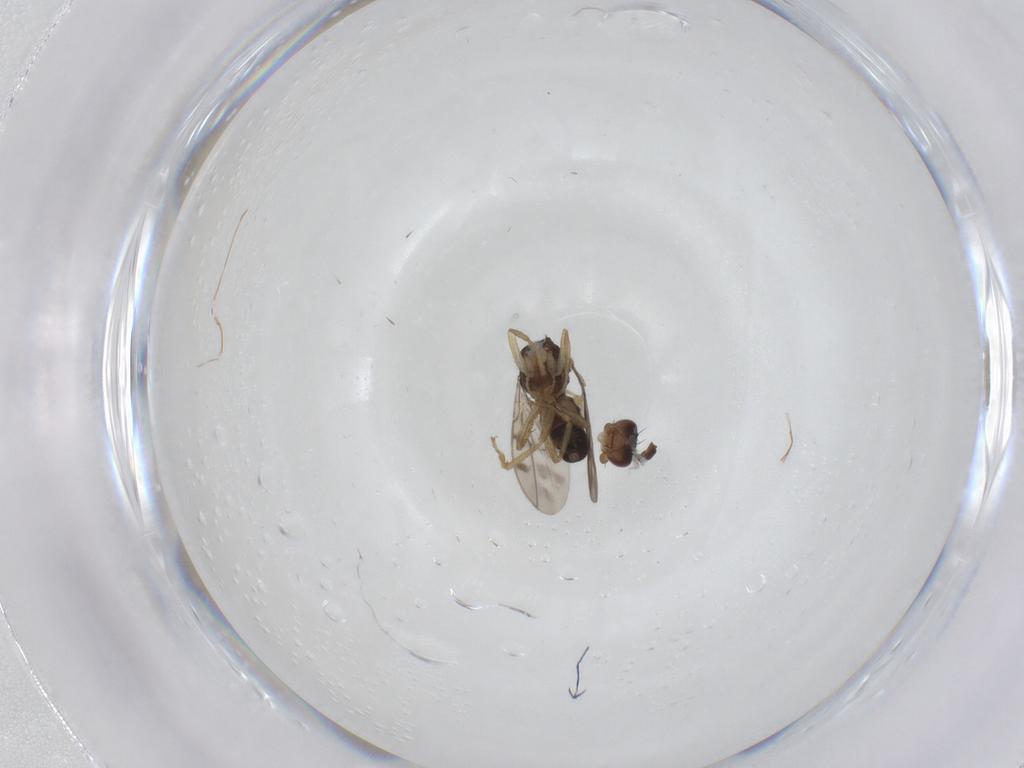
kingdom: Animalia
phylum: Arthropoda
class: Insecta
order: Diptera
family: Sphaeroceridae
